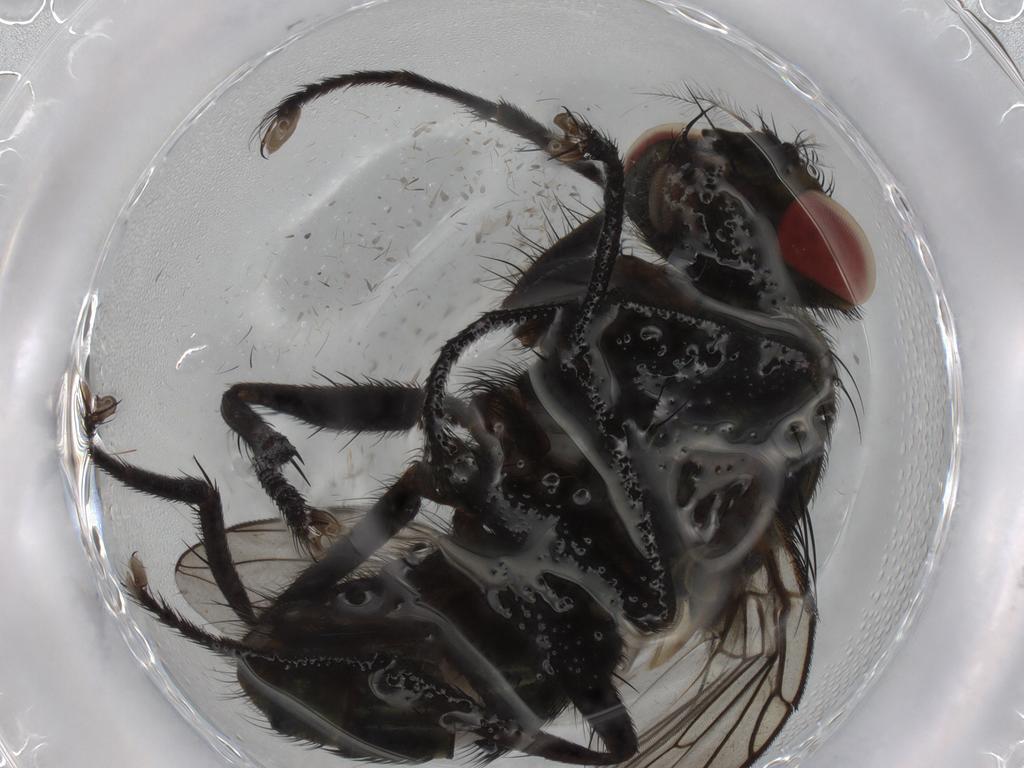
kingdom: Animalia
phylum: Arthropoda
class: Insecta
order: Diptera
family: Sarcophagidae
